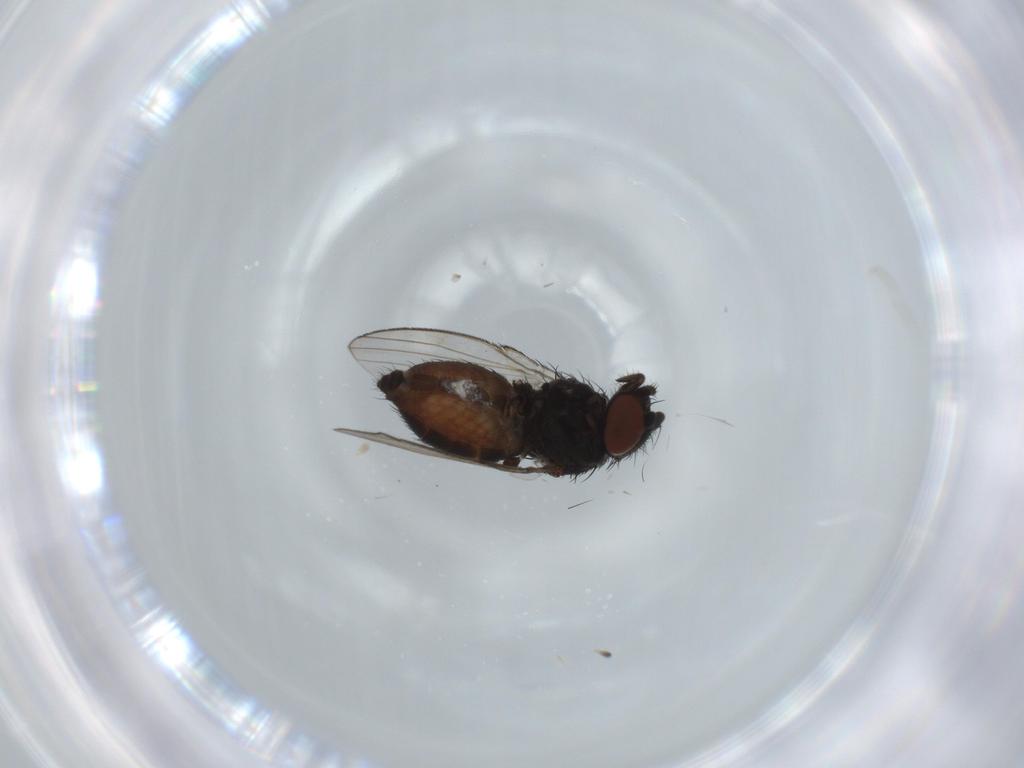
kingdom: Animalia
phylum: Arthropoda
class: Insecta
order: Diptera
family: Milichiidae
